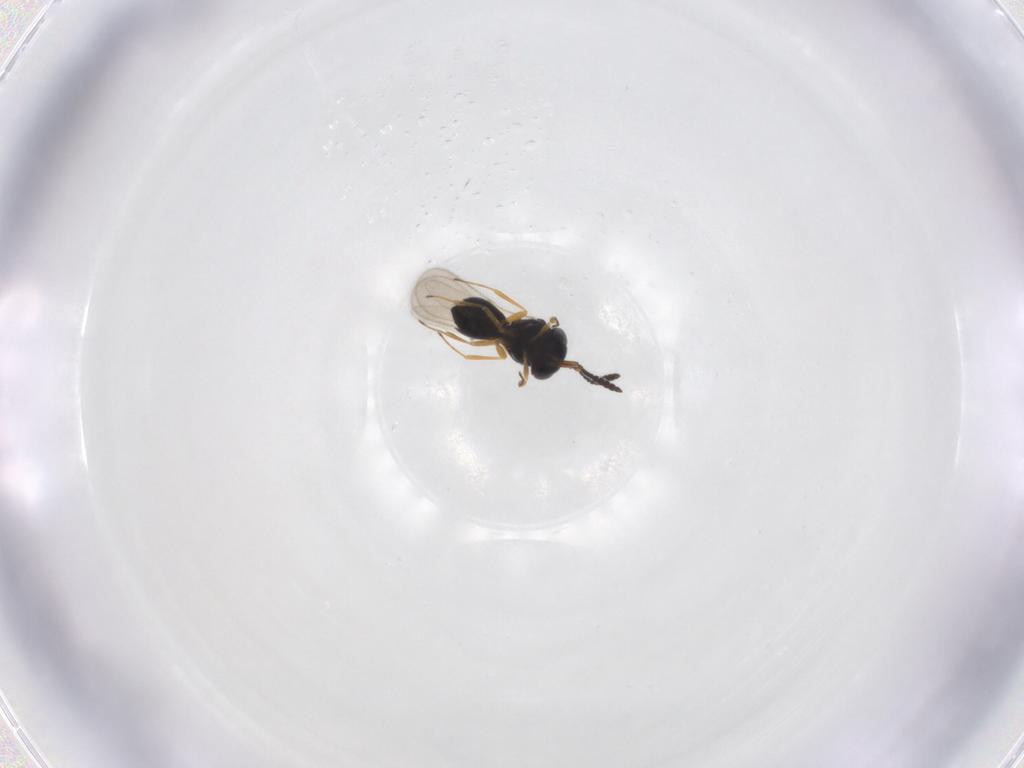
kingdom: Animalia
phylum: Arthropoda
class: Insecta
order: Hymenoptera
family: Scelionidae
